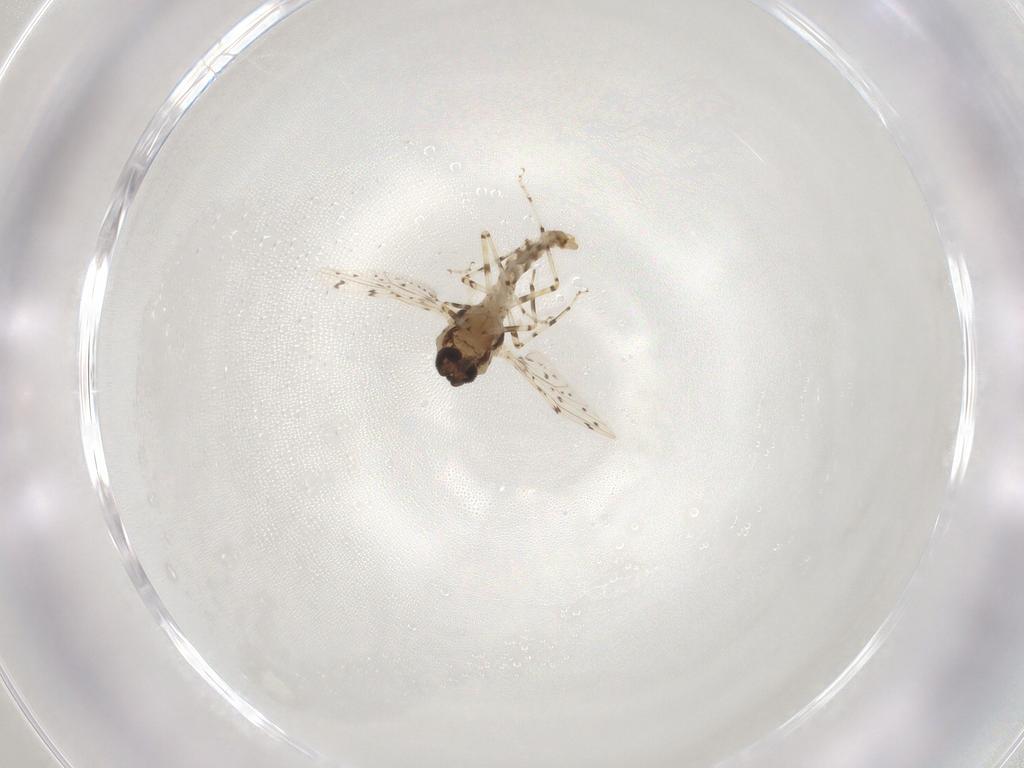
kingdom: Animalia
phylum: Arthropoda
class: Insecta
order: Diptera
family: Ceratopogonidae
